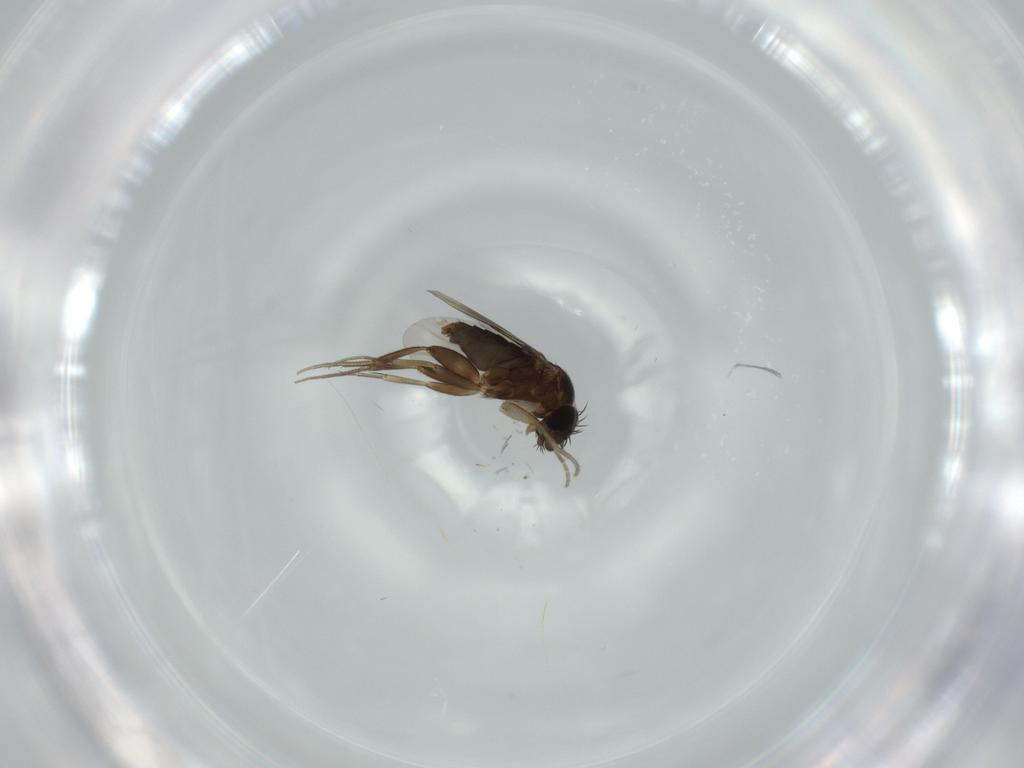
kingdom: Animalia
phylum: Arthropoda
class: Insecta
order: Diptera
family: Phoridae
